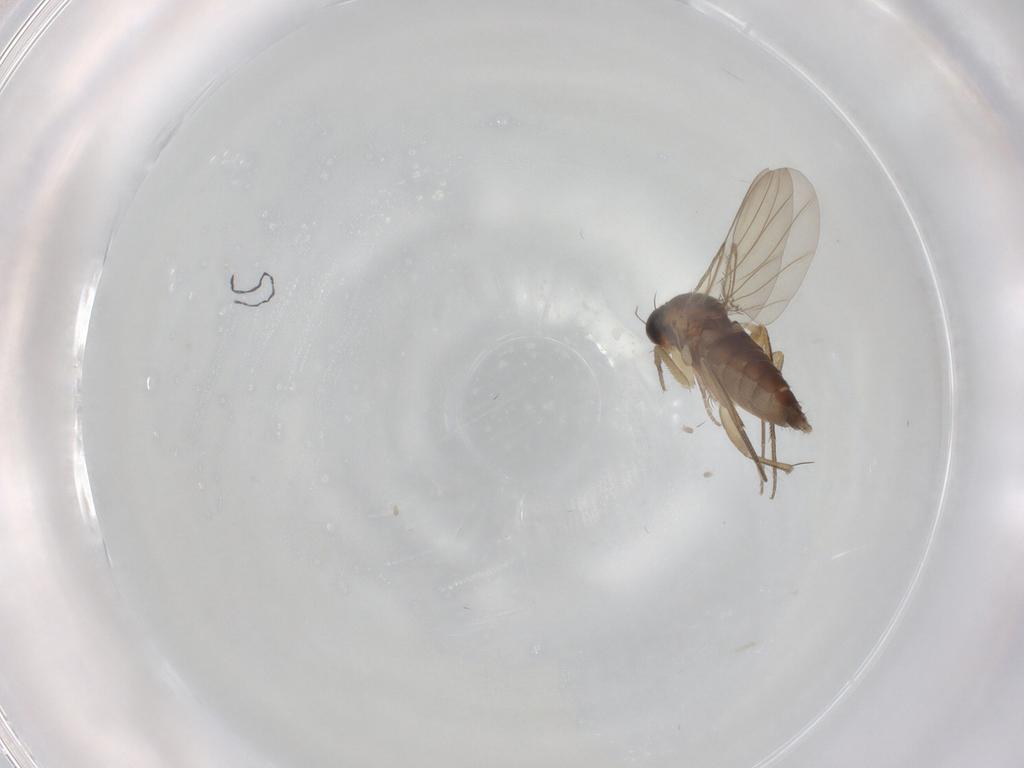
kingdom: Animalia
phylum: Arthropoda
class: Insecta
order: Diptera
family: Phoridae
